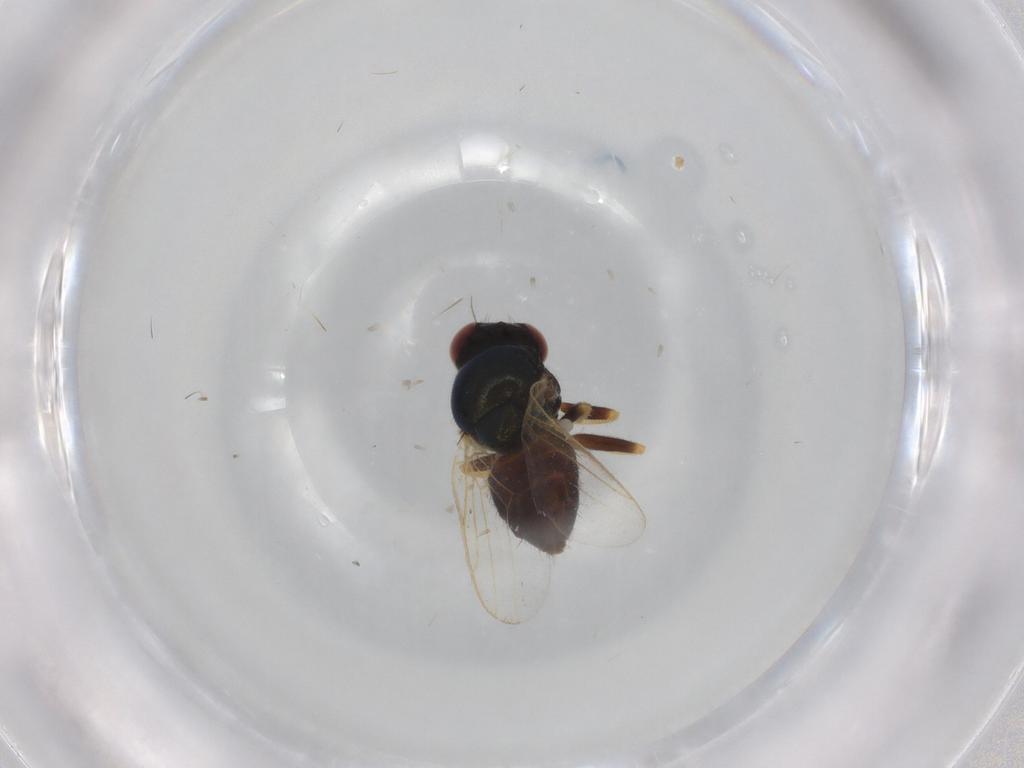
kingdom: Animalia
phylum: Arthropoda
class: Insecta
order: Diptera
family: Chloropidae
